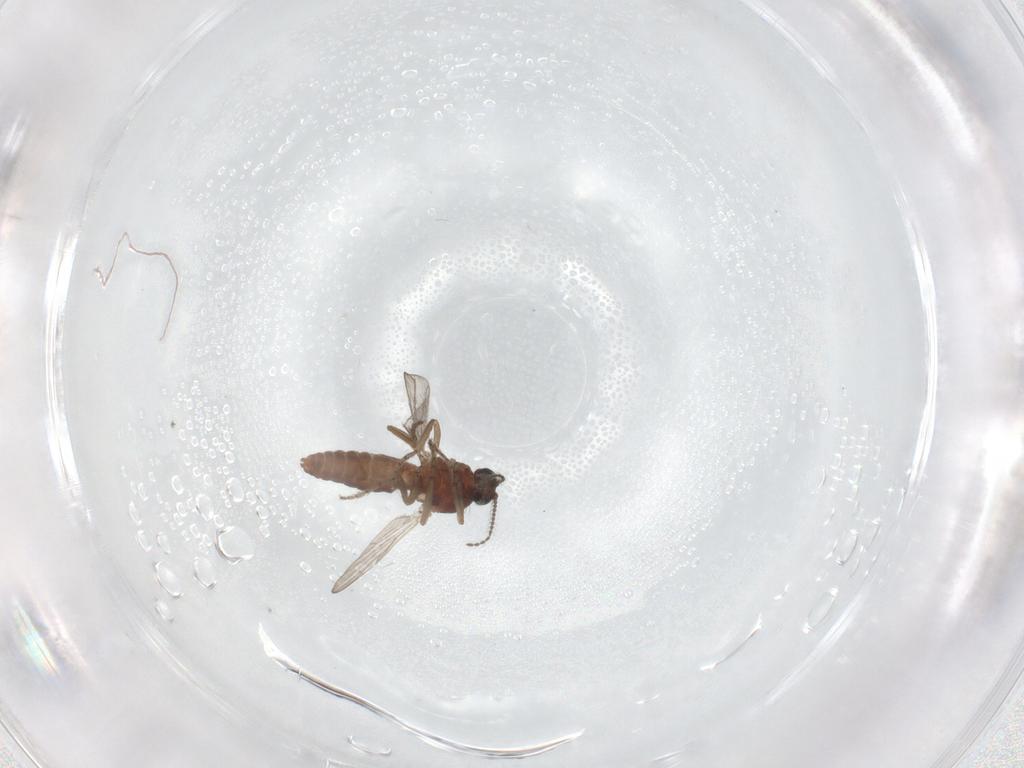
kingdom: Animalia
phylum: Arthropoda
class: Insecta
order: Diptera
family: Ceratopogonidae
